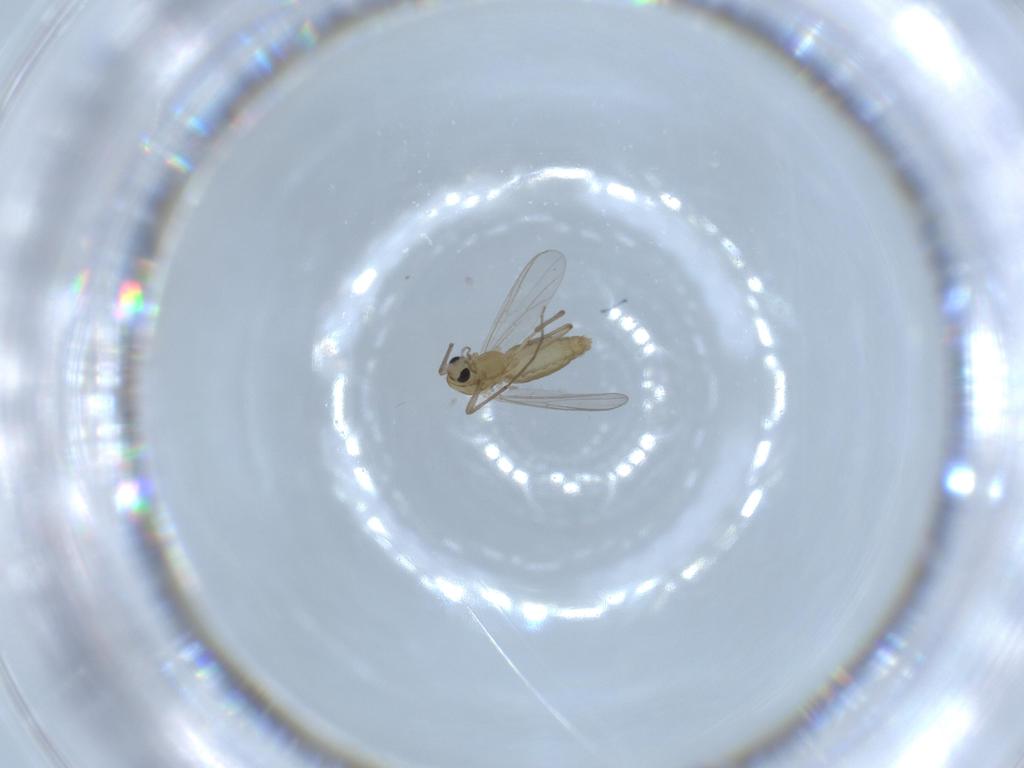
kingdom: Animalia
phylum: Arthropoda
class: Insecta
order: Diptera
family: Chironomidae
